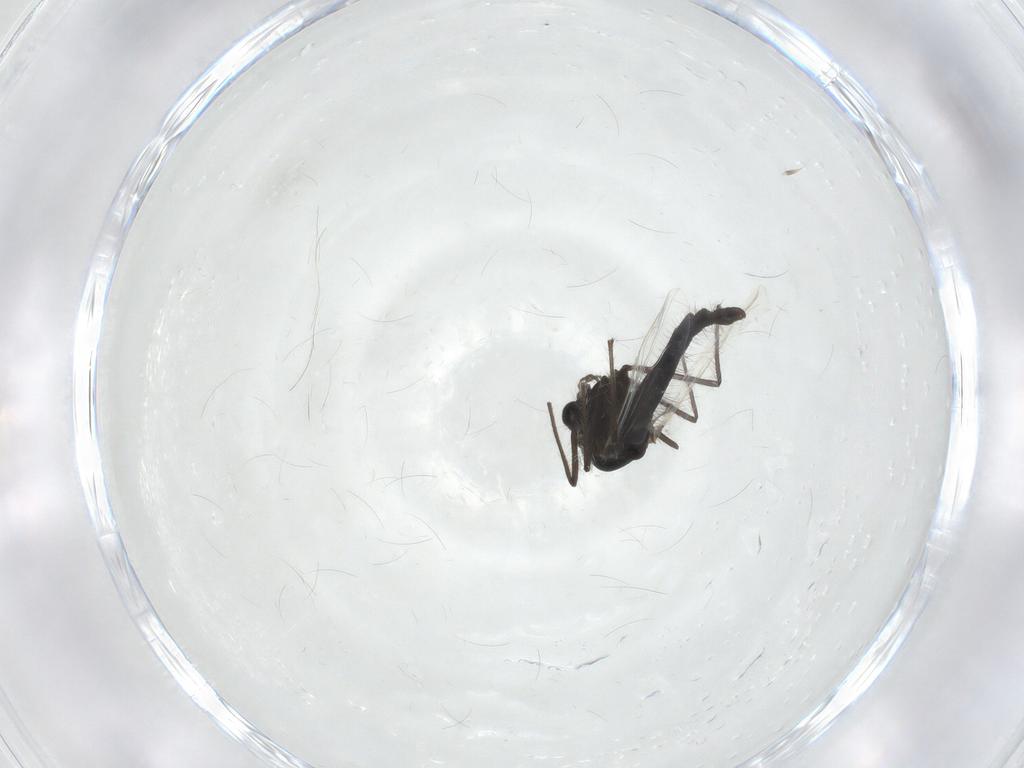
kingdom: Animalia
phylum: Arthropoda
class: Insecta
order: Diptera
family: Chironomidae
